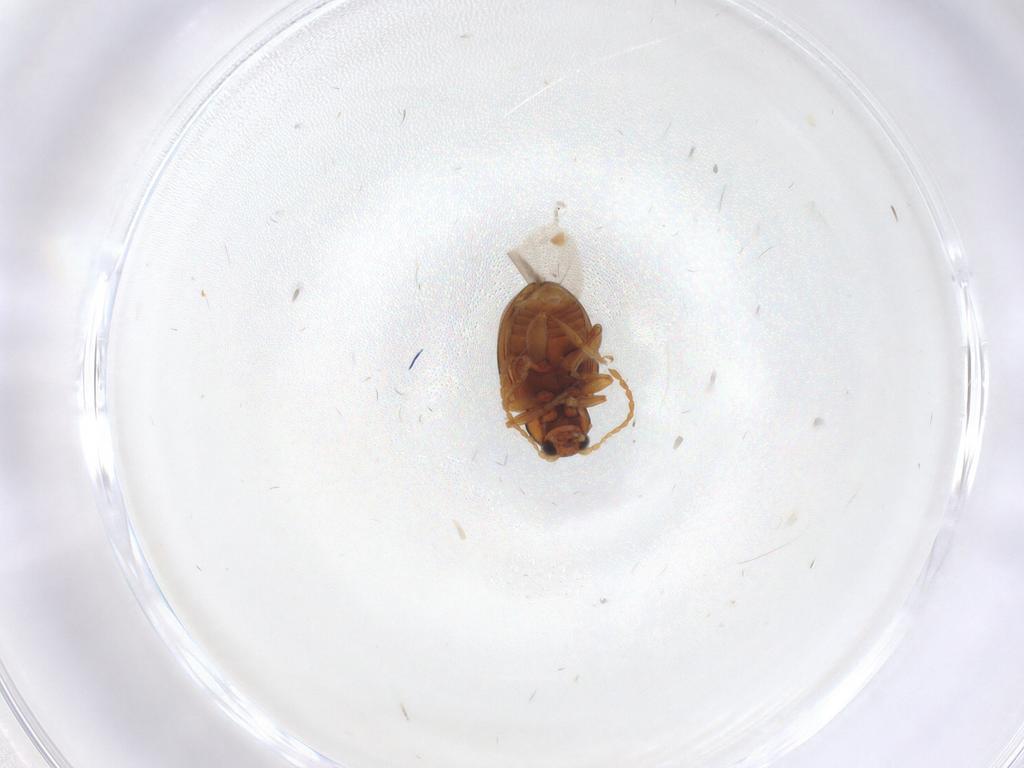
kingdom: Animalia
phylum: Arthropoda
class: Insecta
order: Coleoptera
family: Chrysomelidae
